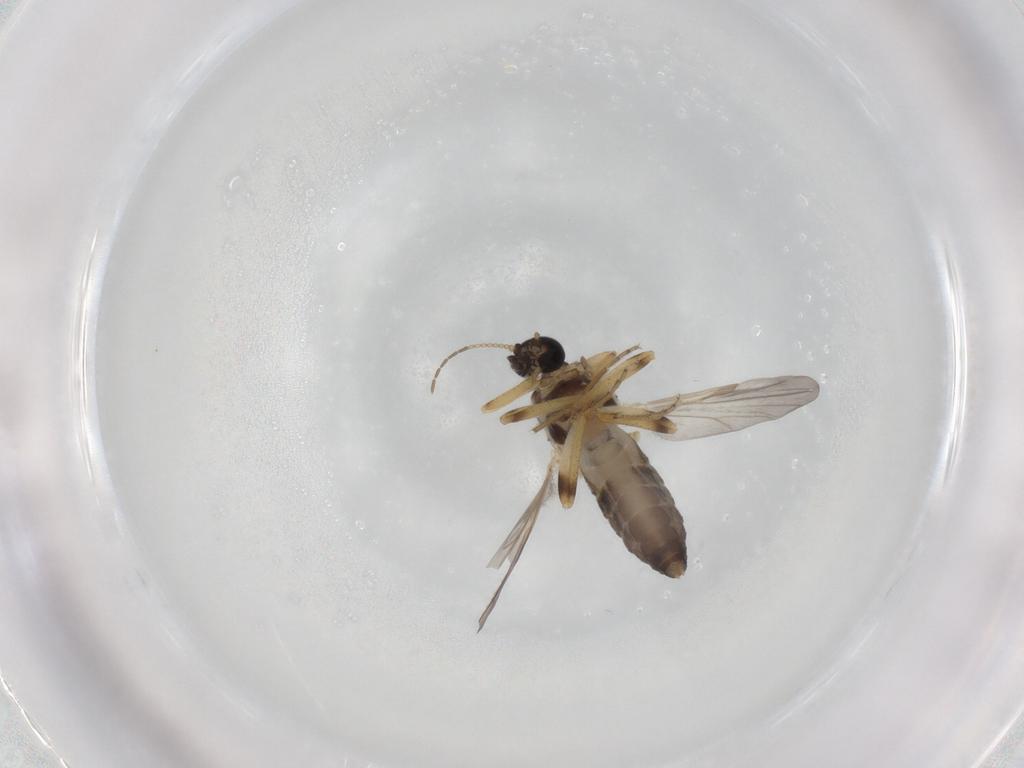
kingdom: Animalia
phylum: Arthropoda
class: Insecta
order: Diptera
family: Ceratopogonidae
